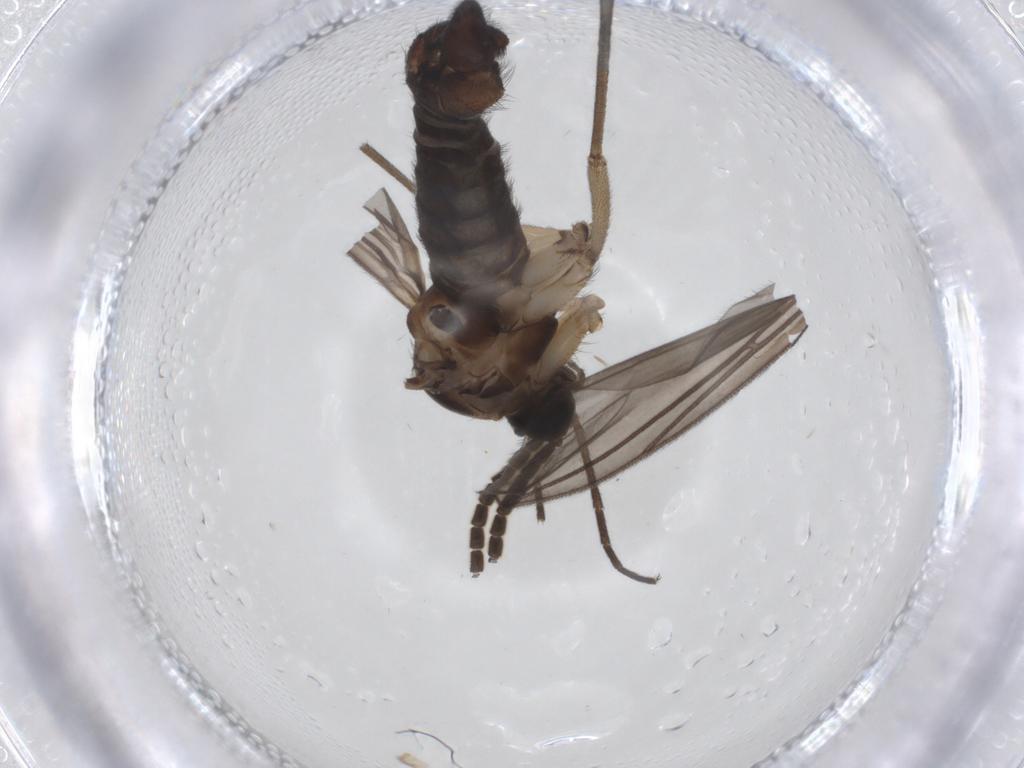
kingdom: Animalia
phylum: Arthropoda
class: Insecta
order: Diptera
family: Sciaridae
